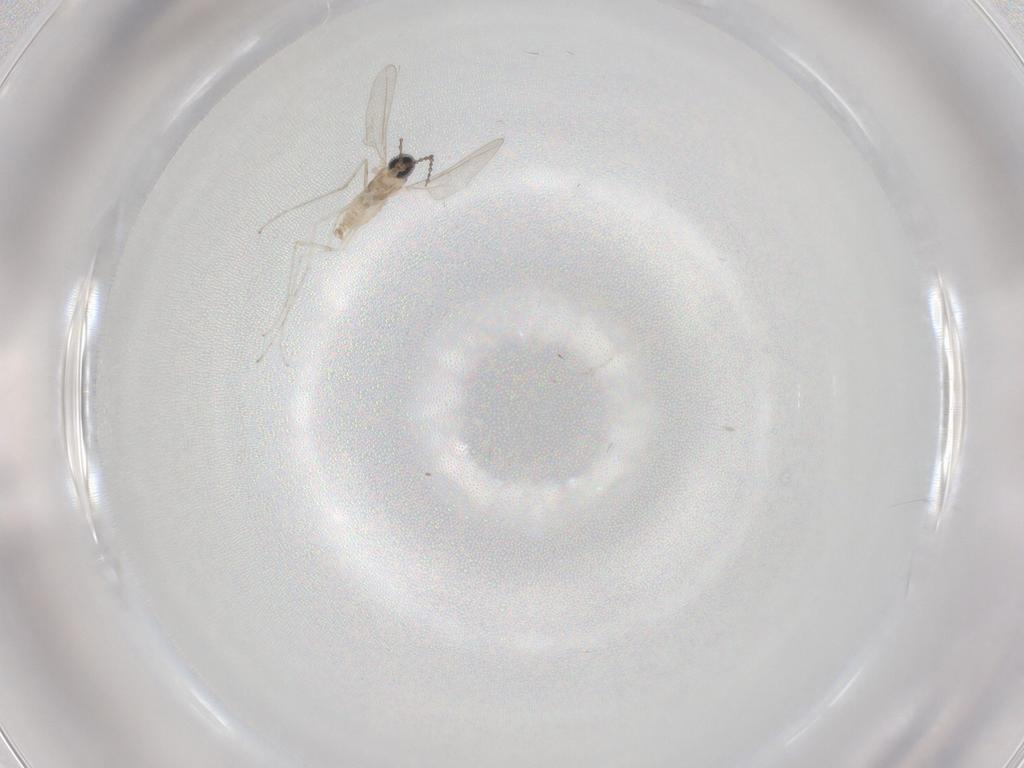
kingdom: Animalia
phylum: Arthropoda
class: Insecta
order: Diptera
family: Cecidomyiidae
